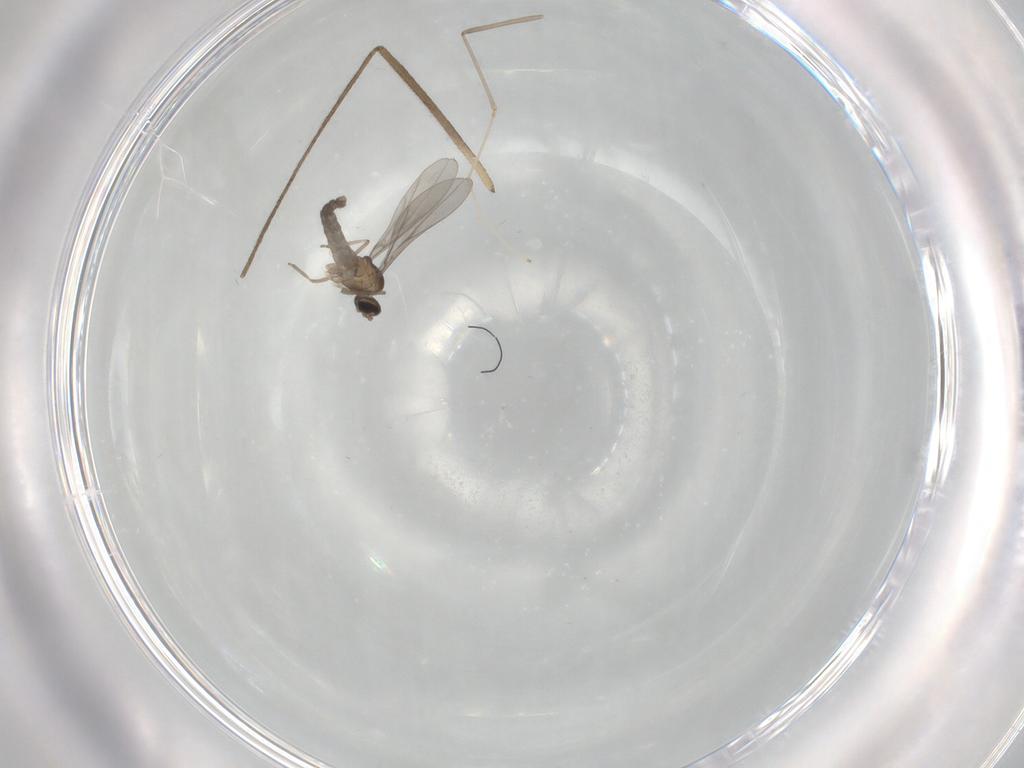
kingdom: Animalia
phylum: Arthropoda
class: Insecta
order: Diptera
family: Limoniidae
